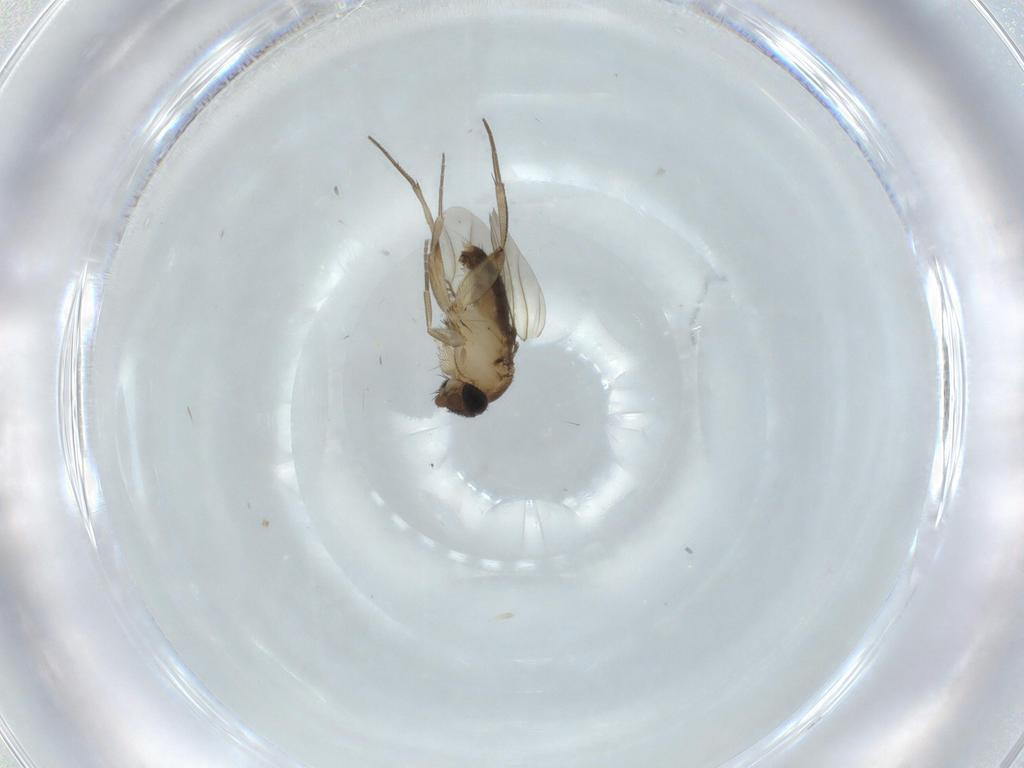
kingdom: Animalia
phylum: Arthropoda
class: Insecta
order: Diptera
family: Phoridae
